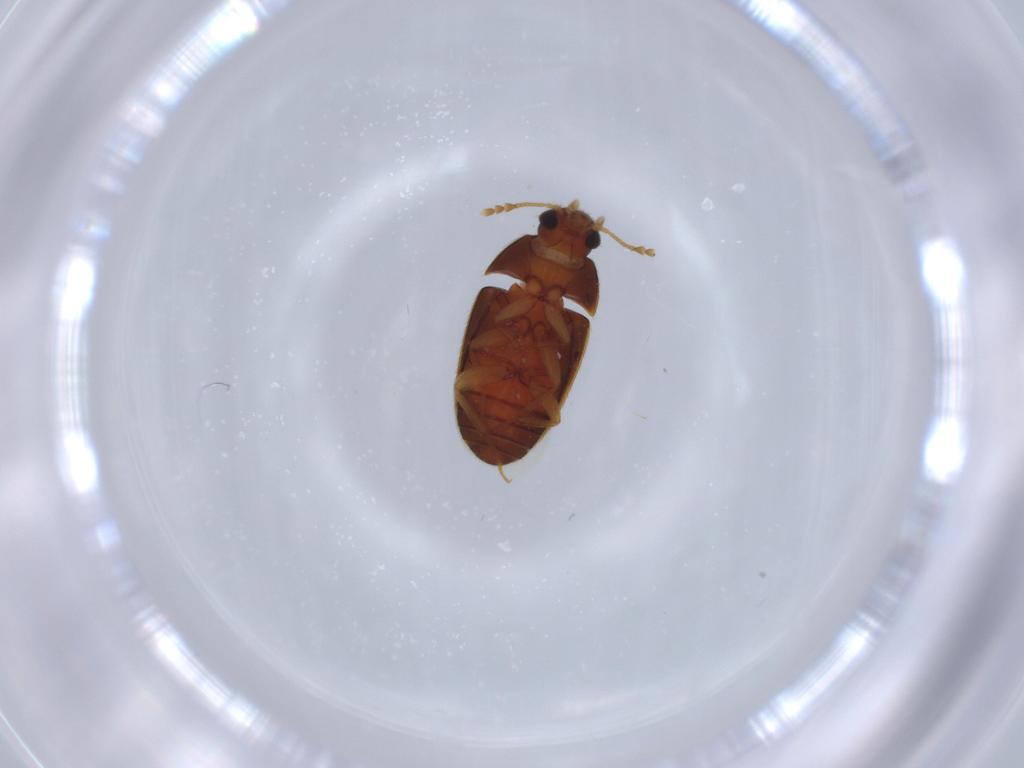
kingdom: Animalia
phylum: Arthropoda
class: Insecta
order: Coleoptera
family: Mycetophagidae
